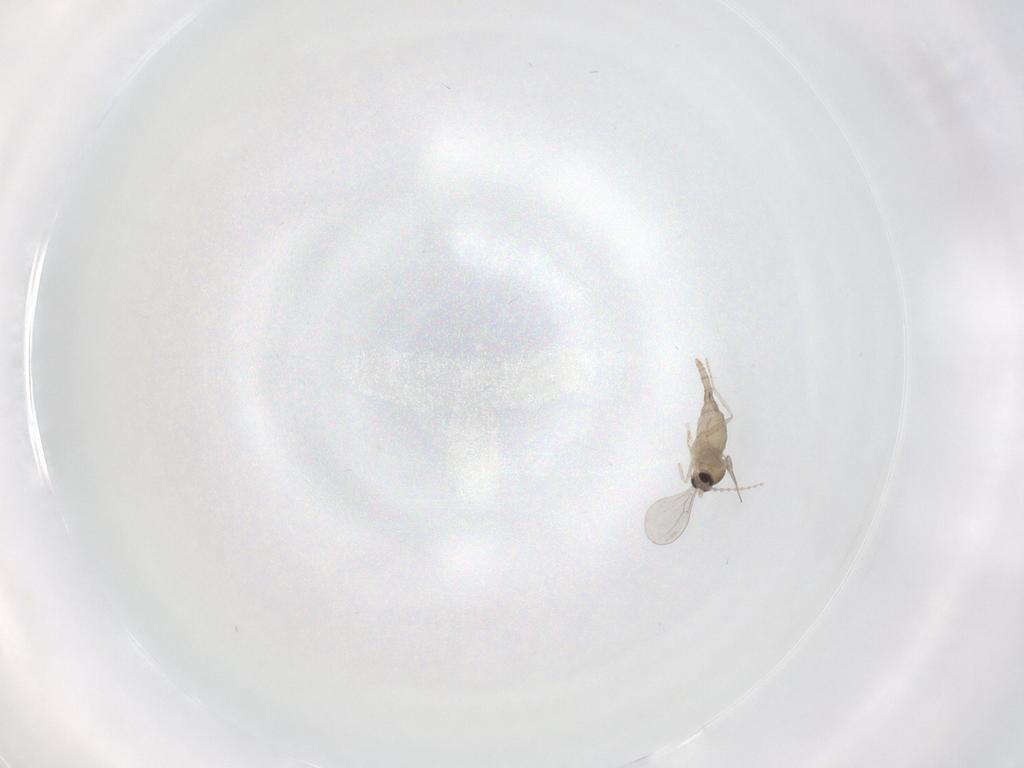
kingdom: Animalia
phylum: Arthropoda
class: Insecta
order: Diptera
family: Cecidomyiidae
